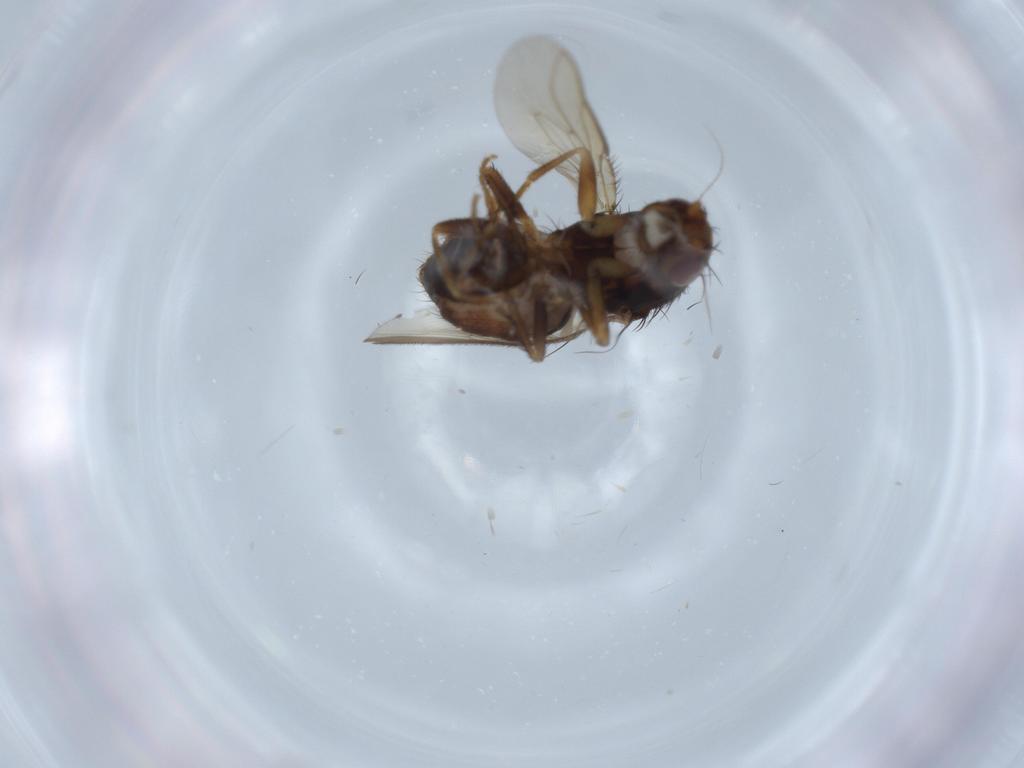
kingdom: Animalia
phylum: Arthropoda
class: Insecta
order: Diptera
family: Sphaeroceridae
